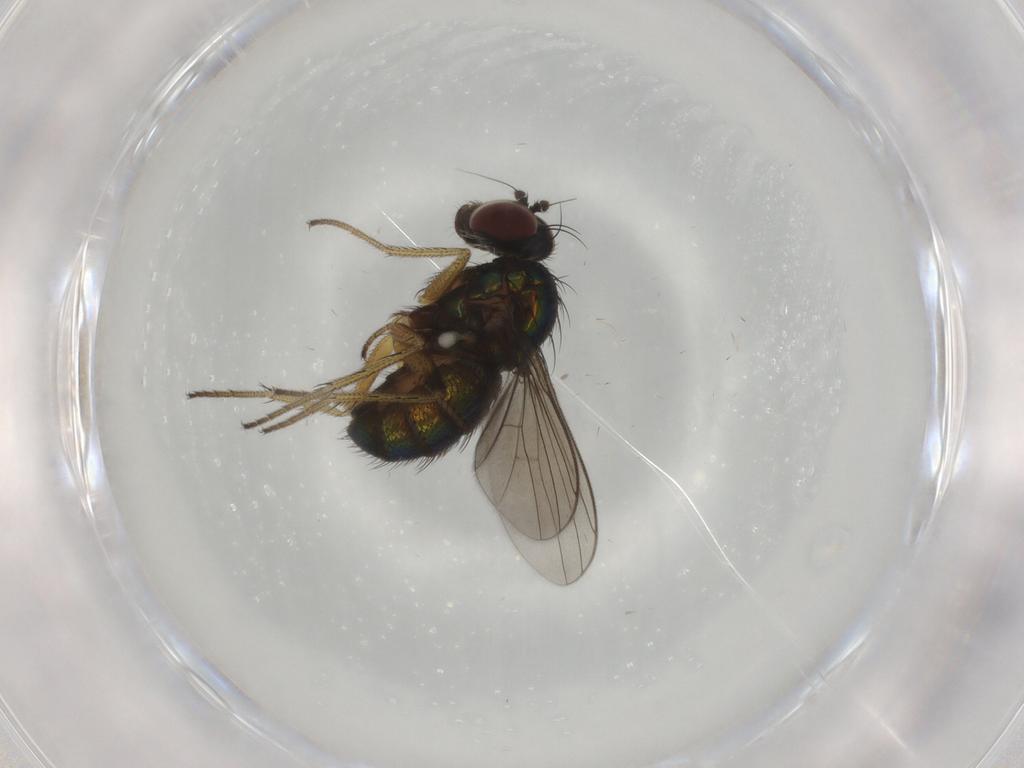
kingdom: Animalia
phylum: Arthropoda
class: Insecta
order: Diptera
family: Dolichopodidae
